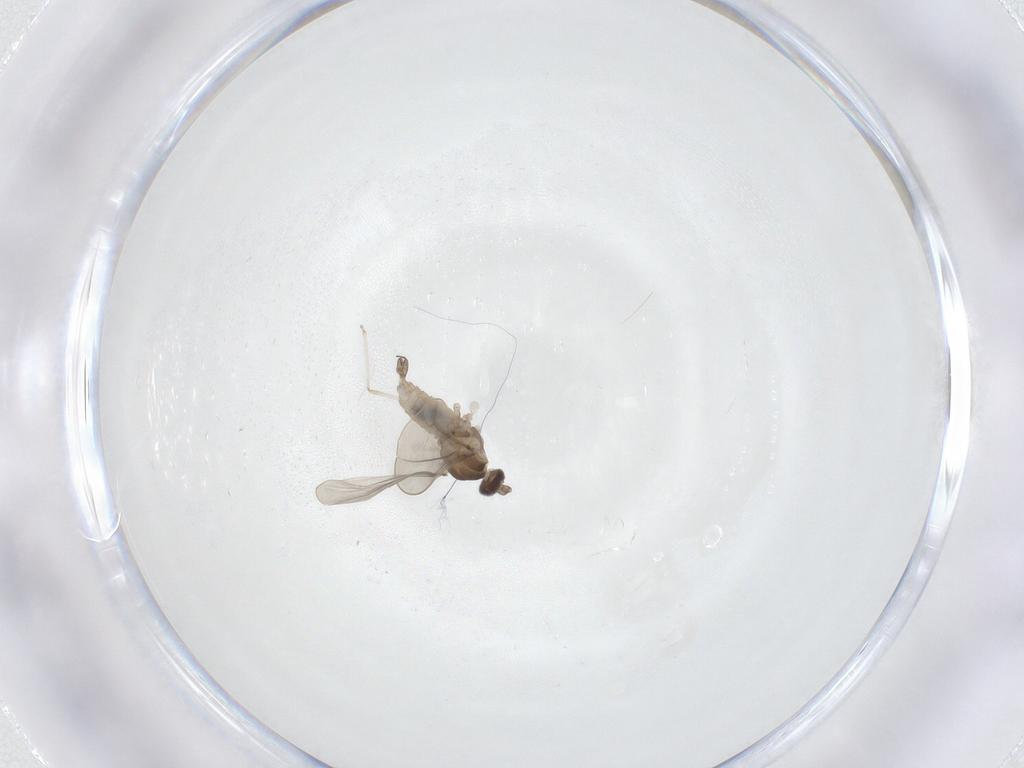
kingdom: Animalia
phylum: Arthropoda
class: Insecta
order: Diptera
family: Cecidomyiidae
